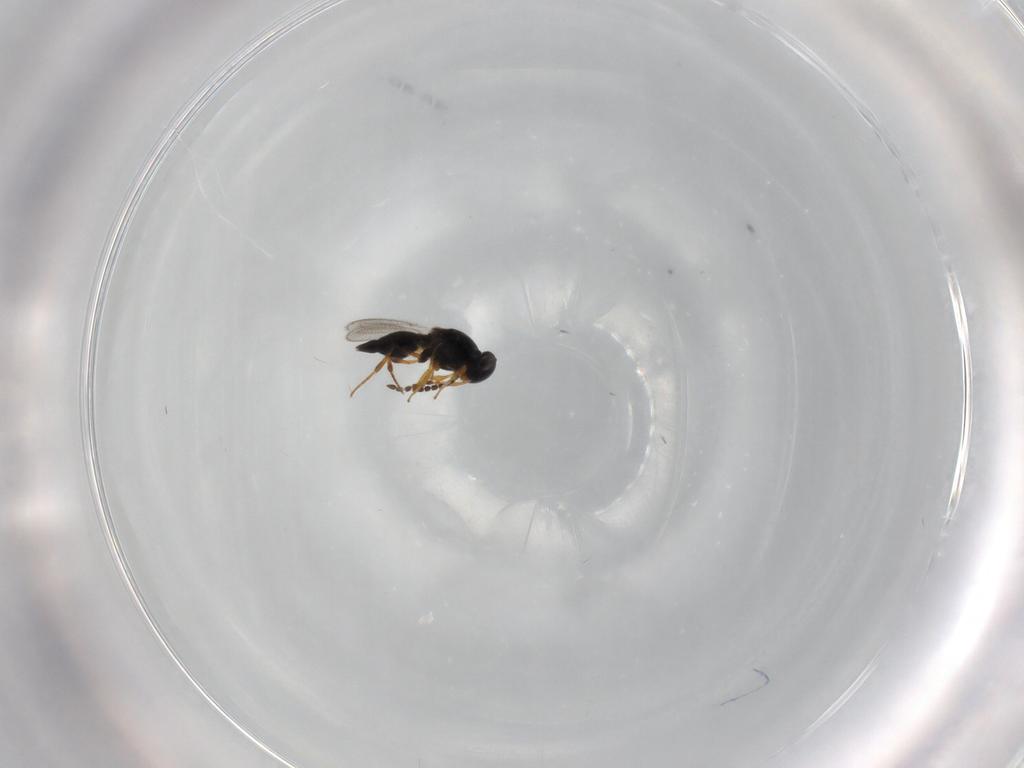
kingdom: Animalia
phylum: Arthropoda
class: Insecta
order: Hymenoptera
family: Platygastridae
